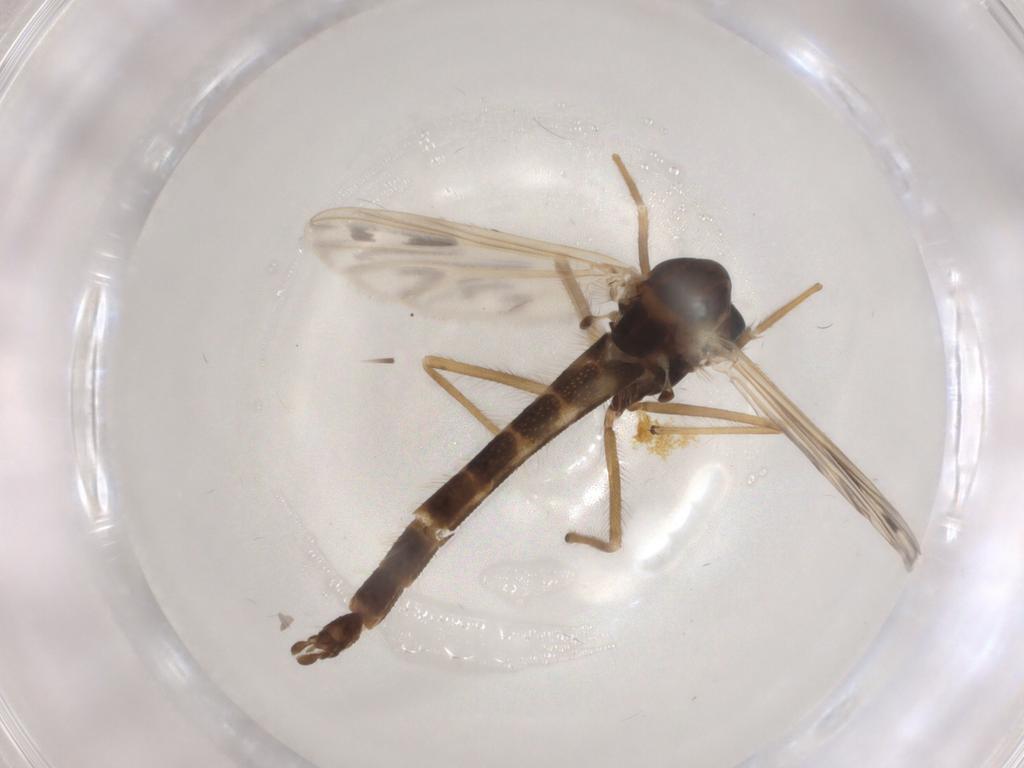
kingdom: Animalia
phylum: Arthropoda
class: Insecta
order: Diptera
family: Chironomidae
